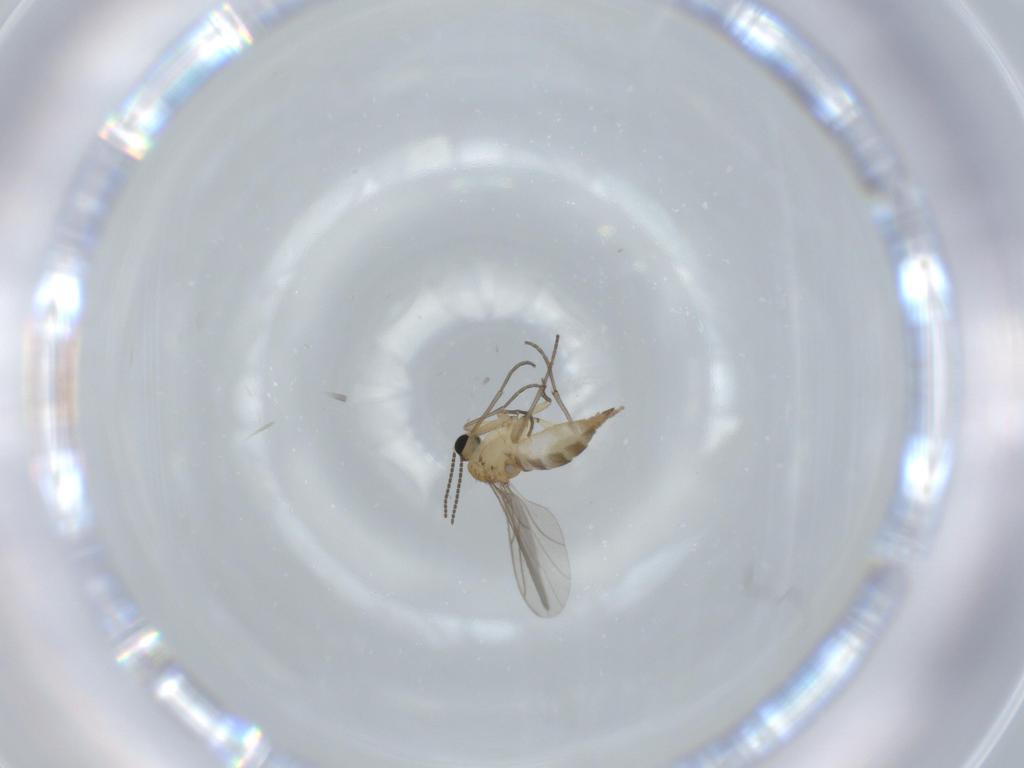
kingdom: Animalia
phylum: Arthropoda
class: Insecta
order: Diptera
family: Sciaridae
